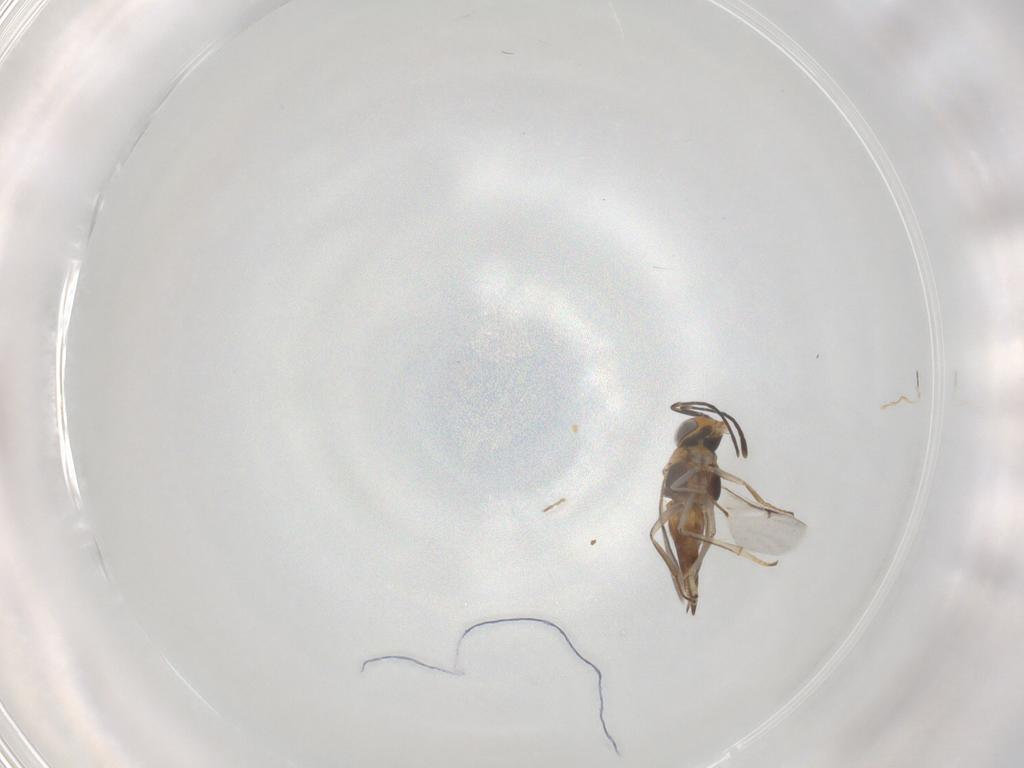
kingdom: Animalia
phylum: Arthropoda
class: Insecta
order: Hymenoptera
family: Encyrtidae
